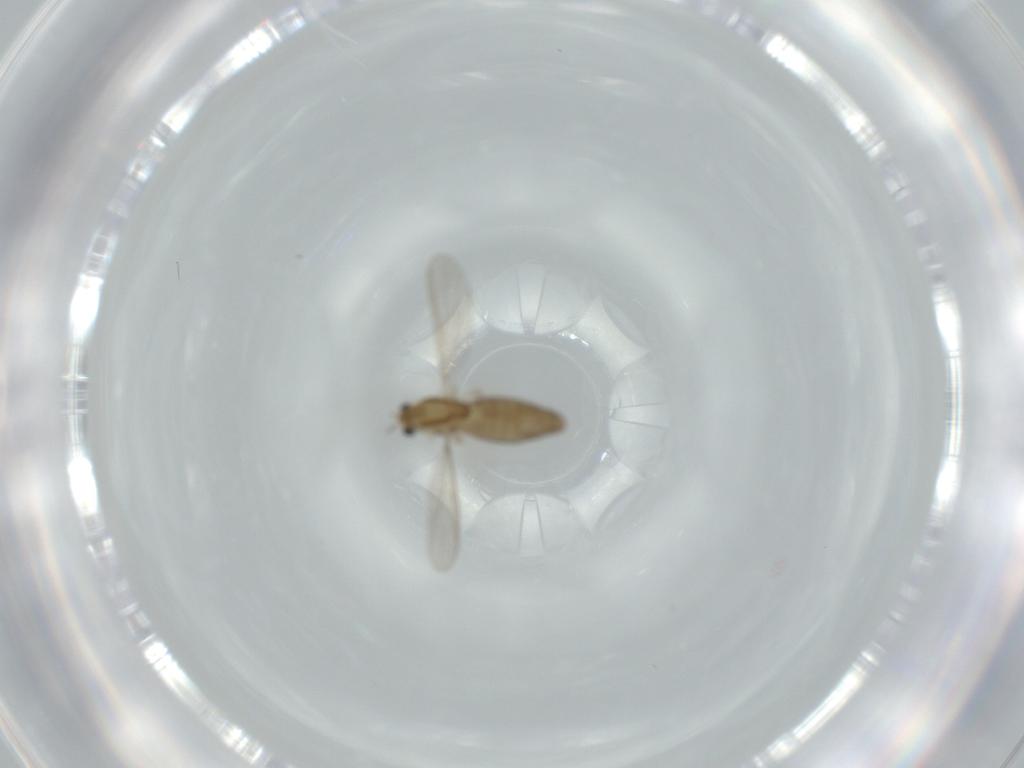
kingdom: Animalia
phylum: Arthropoda
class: Insecta
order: Diptera
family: Chironomidae
